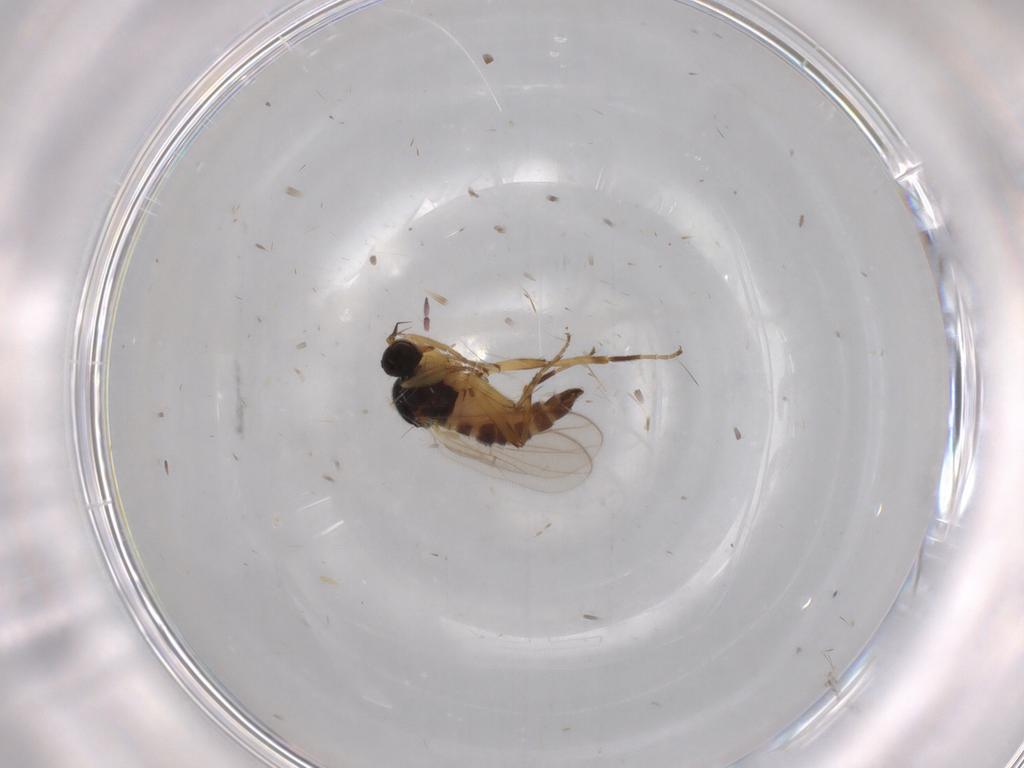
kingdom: Animalia
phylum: Arthropoda
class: Insecta
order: Diptera
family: Hybotidae
